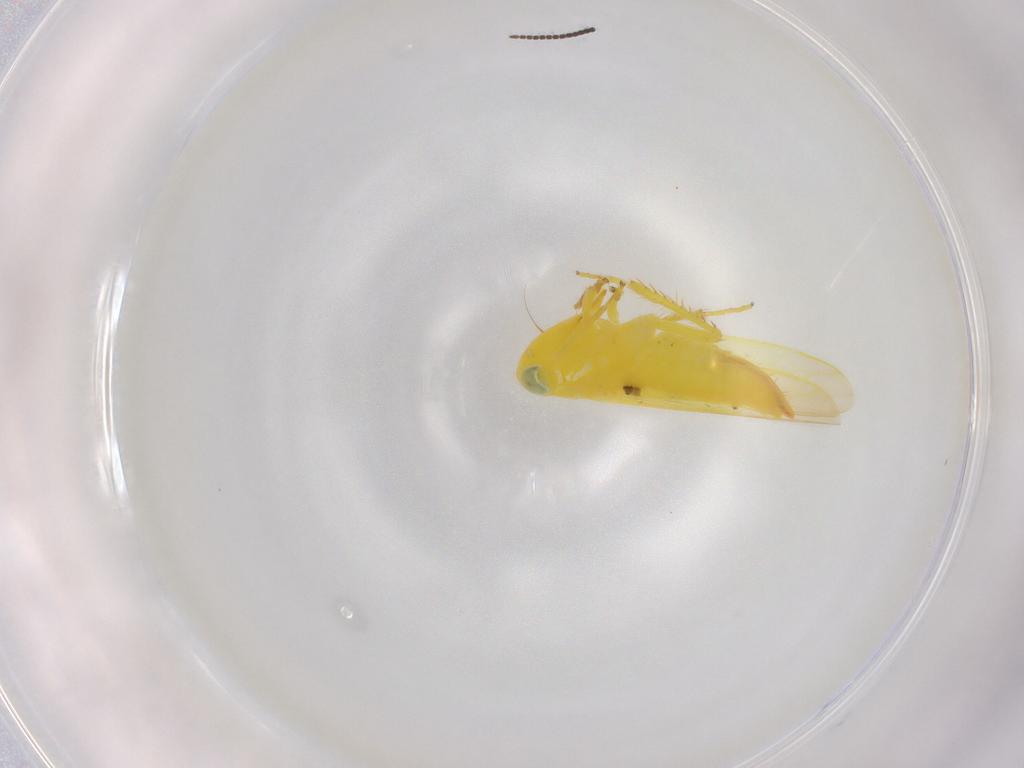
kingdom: Animalia
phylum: Arthropoda
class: Insecta
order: Hemiptera
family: Cicadellidae
